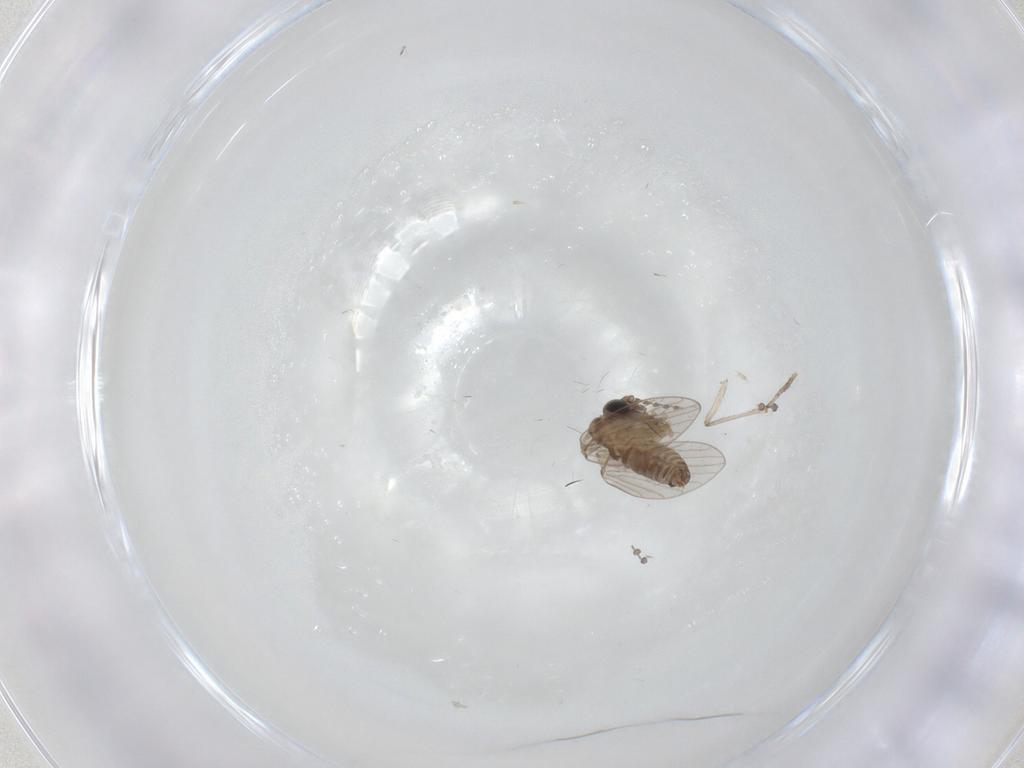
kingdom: Animalia
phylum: Arthropoda
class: Insecta
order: Diptera
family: Psychodidae
